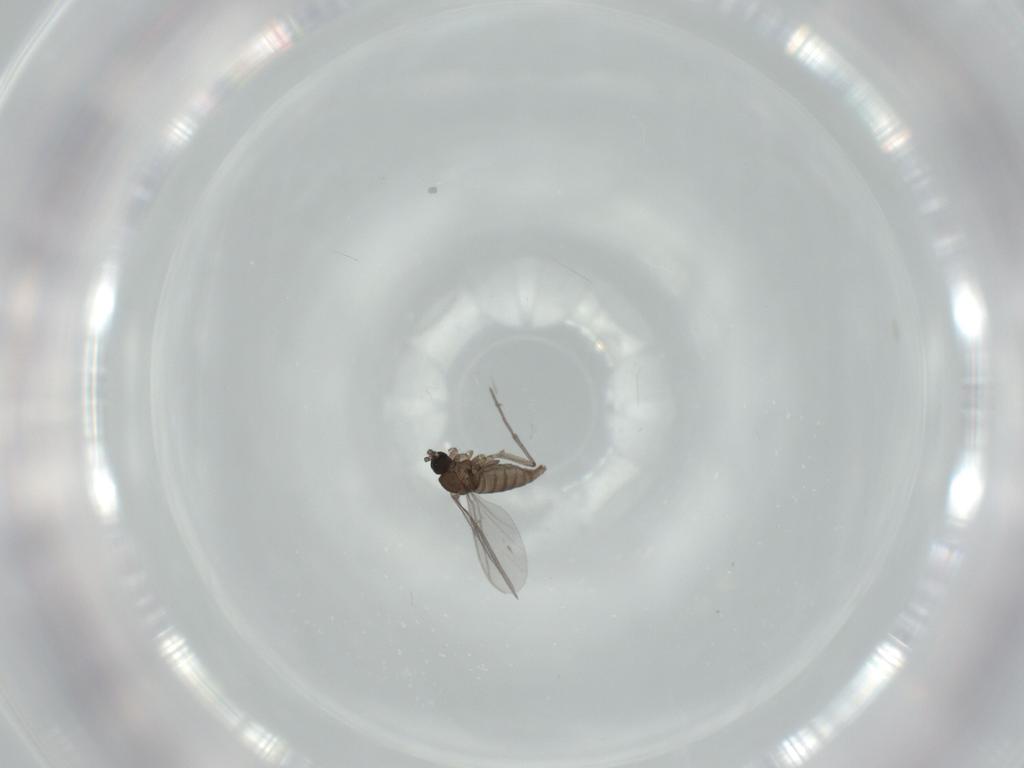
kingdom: Animalia
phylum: Arthropoda
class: Insecta
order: Diptera
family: Sciaridae
